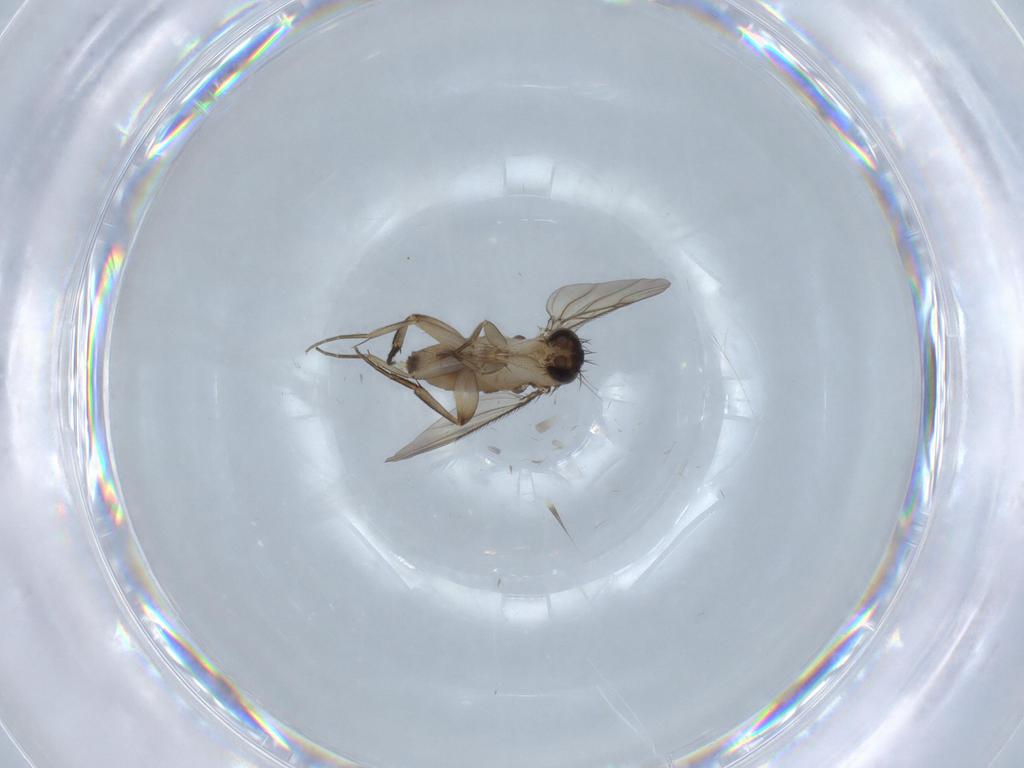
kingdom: Animalia
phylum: Arthropoda
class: Insecta
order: Diptera
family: Phoridae
